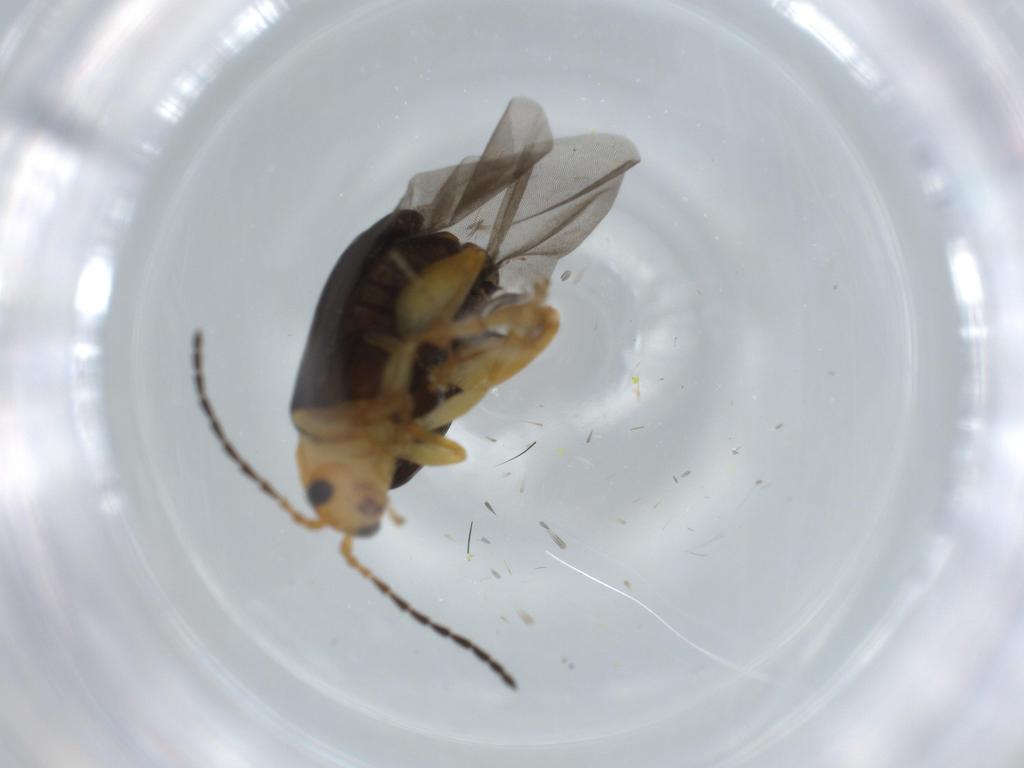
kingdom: Animalia
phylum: Arthropoda
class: Insecta
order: Coleoptera
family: Chrysomelidae
